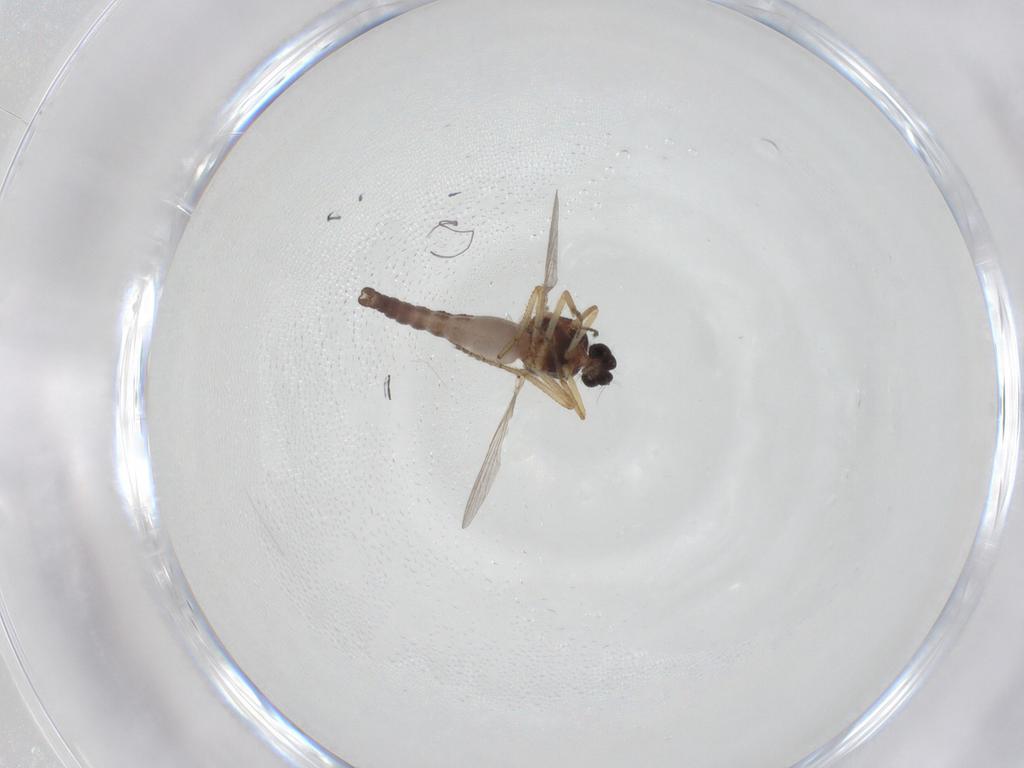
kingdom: Animalia
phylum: Arthropoda
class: Insecta
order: Diptera
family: Ceratopogonidae
